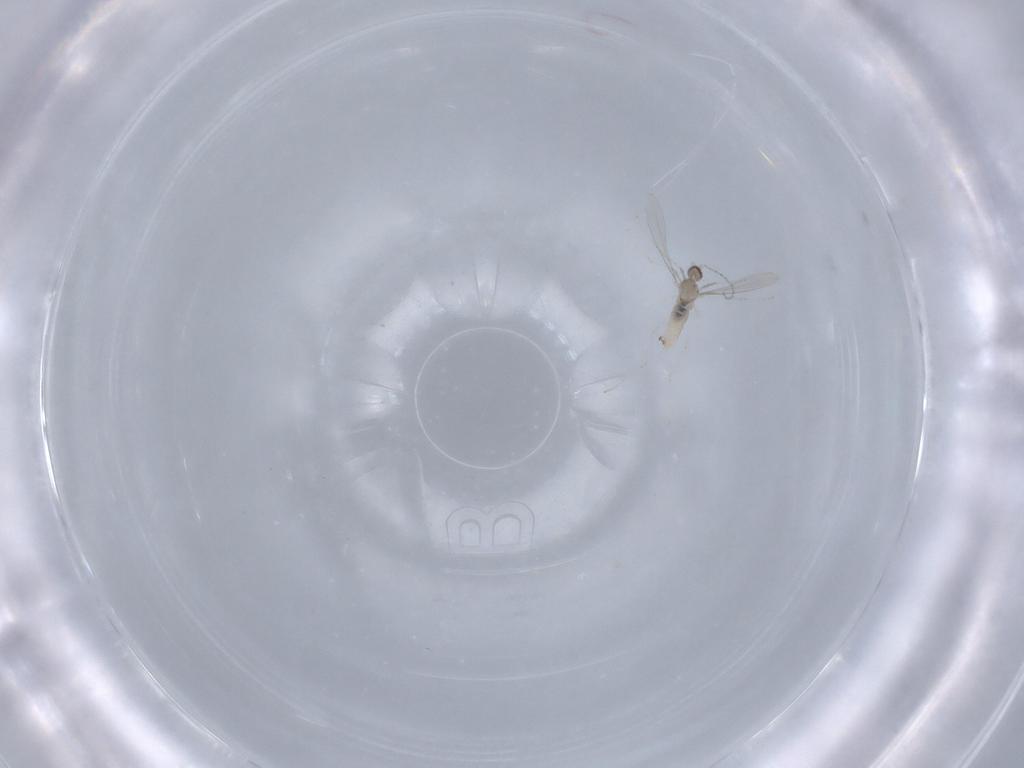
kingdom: Animalia
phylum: Arthropoda
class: Insecta
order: Diptera
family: Cecidomyiidae
